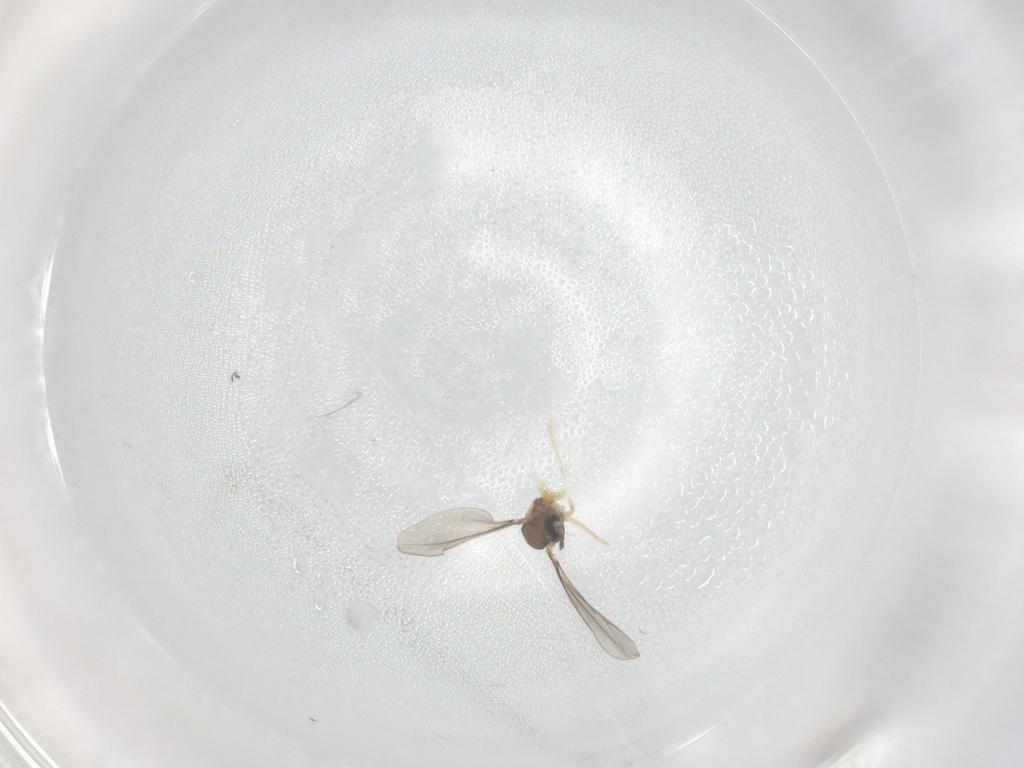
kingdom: Animalia
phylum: Arthropoda
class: Insecta
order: Diptera
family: Cecidomyiidae
